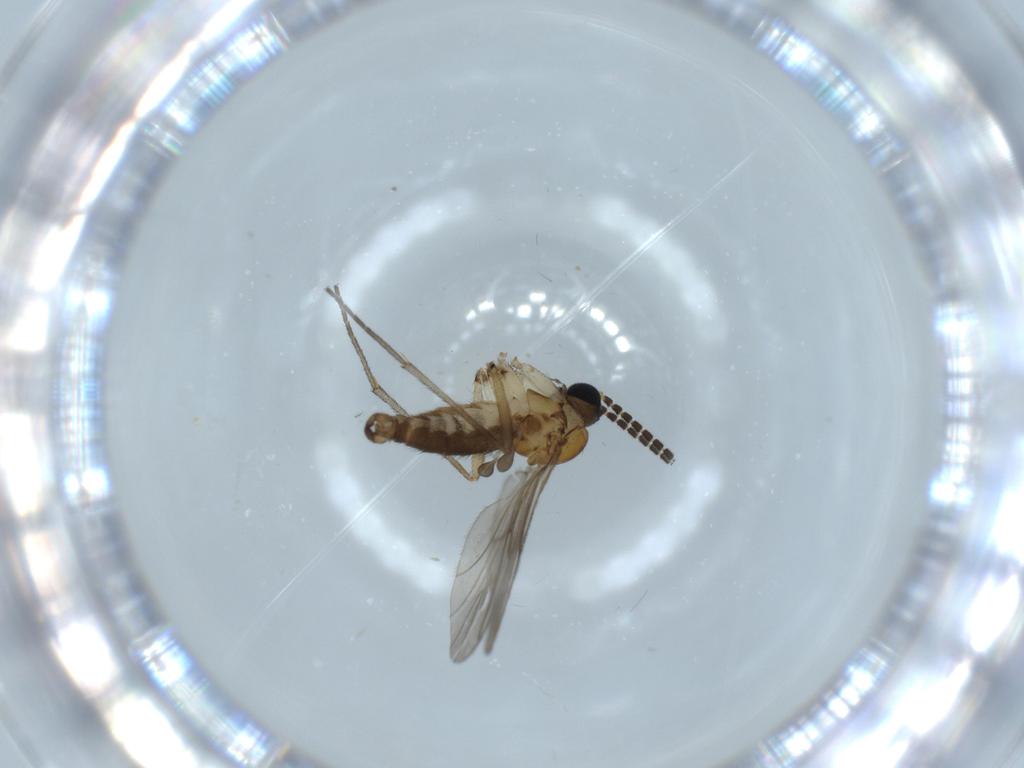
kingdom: Animalia
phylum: Arthropoda
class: Insecta
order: Diptera
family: Sciaridae
